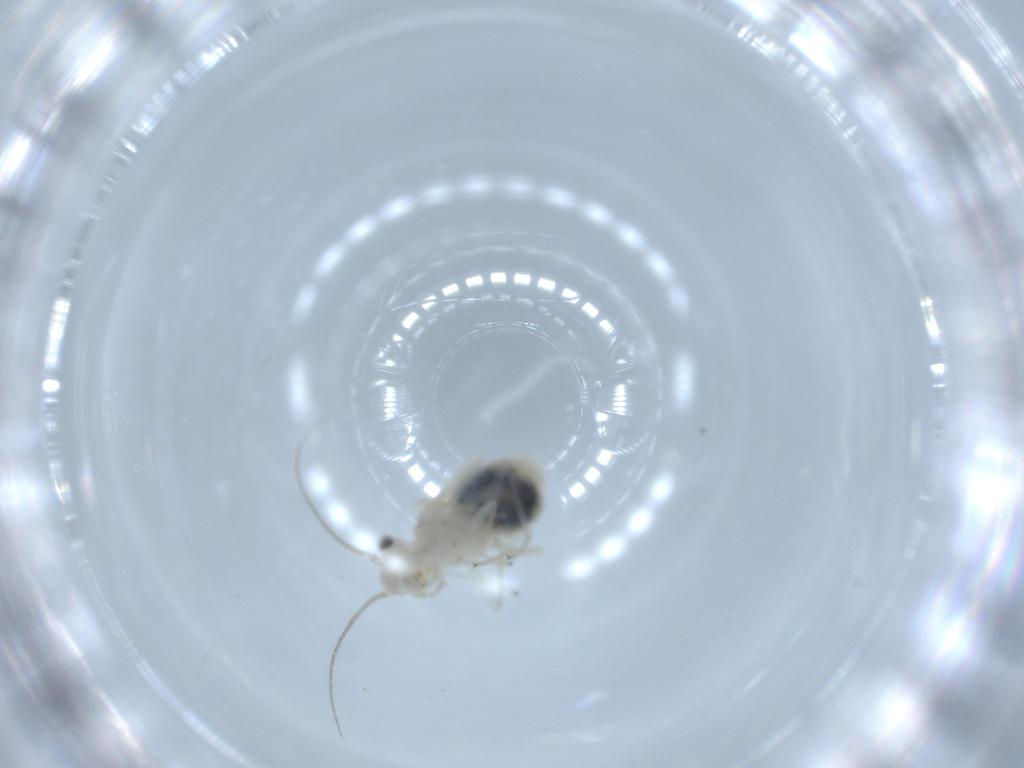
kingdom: Animalia
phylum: Arthropoda
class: Insecta
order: Psocodea
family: Caeciliusidae
